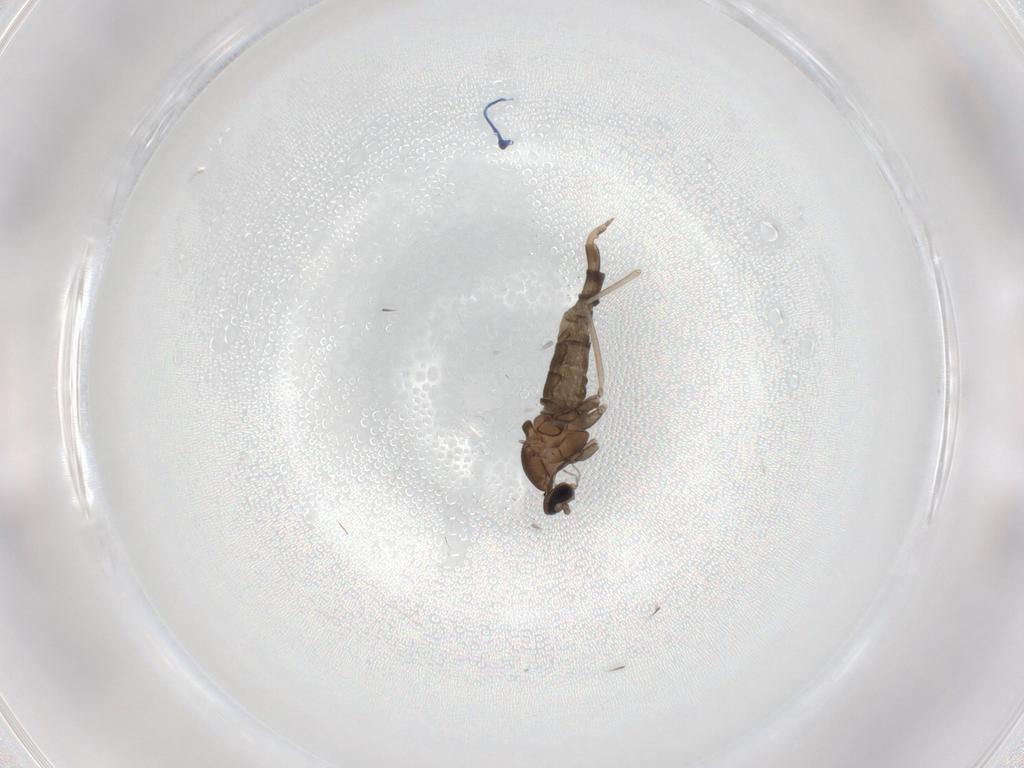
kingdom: Animalia
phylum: Arthropoda
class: Insecta
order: Diptera
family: Cecidomyiidae
